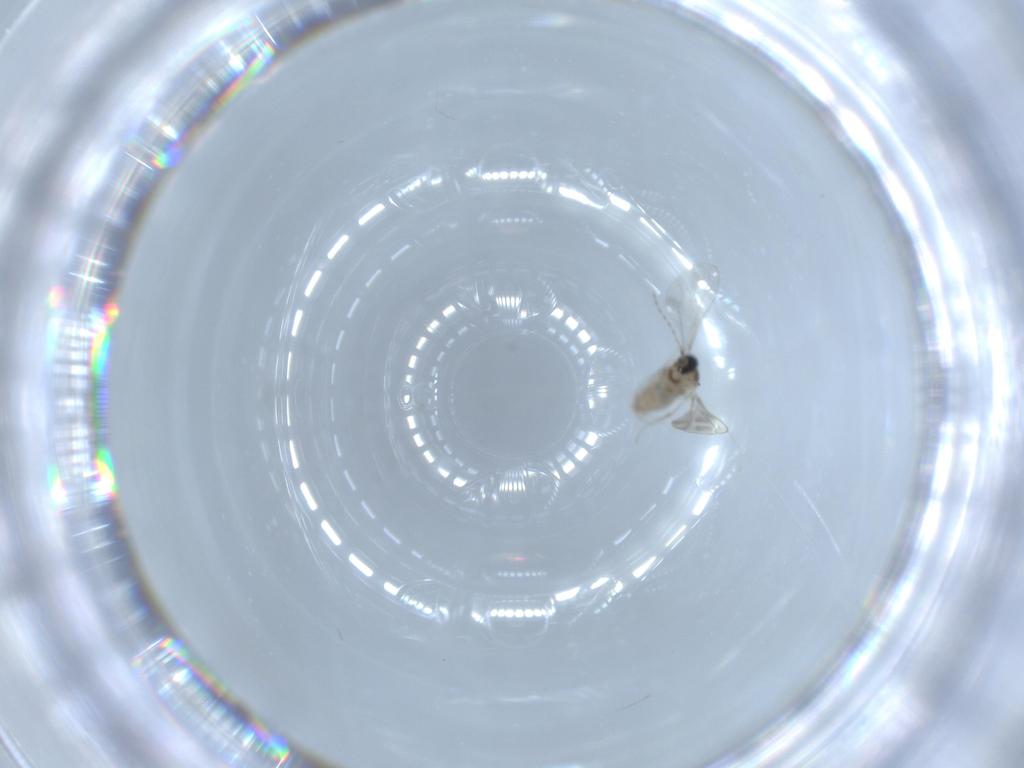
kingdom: Animalia
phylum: Arthropoda
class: Insecta
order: Diptera
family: Cecidomyiidae
